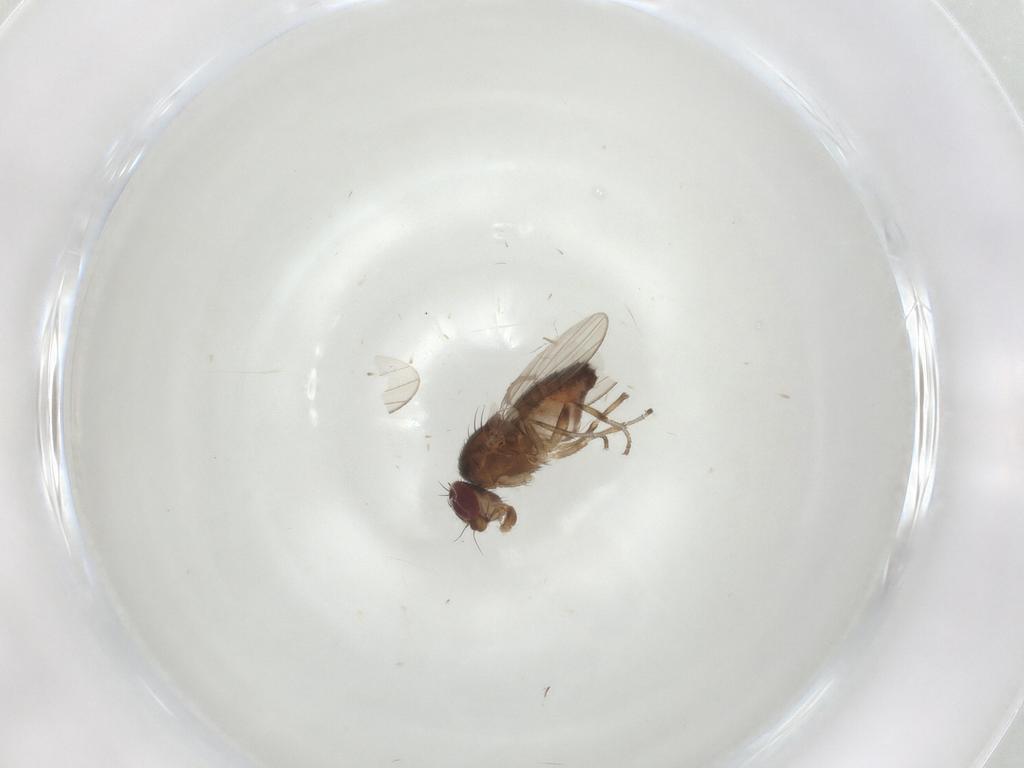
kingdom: Animalia
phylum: Arthropoda
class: Insecta
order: Diptera
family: Heleomyzidae
